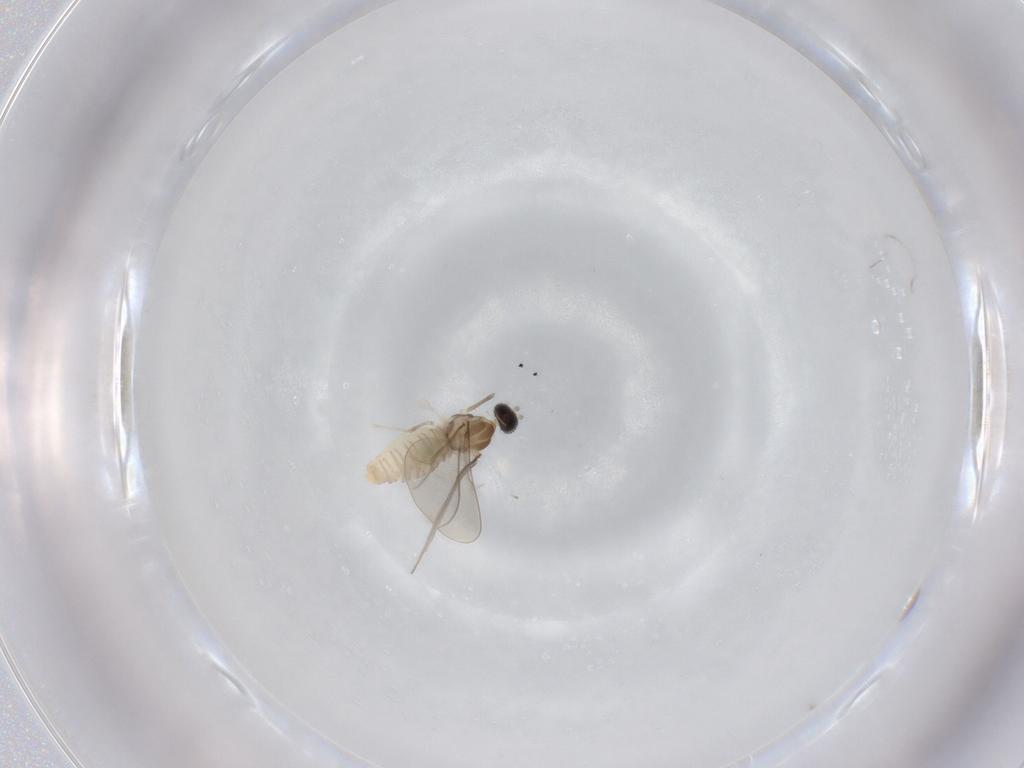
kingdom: Animalia
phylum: Arthropoda
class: Insecta
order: Diptera
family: Cecidomyiidae
